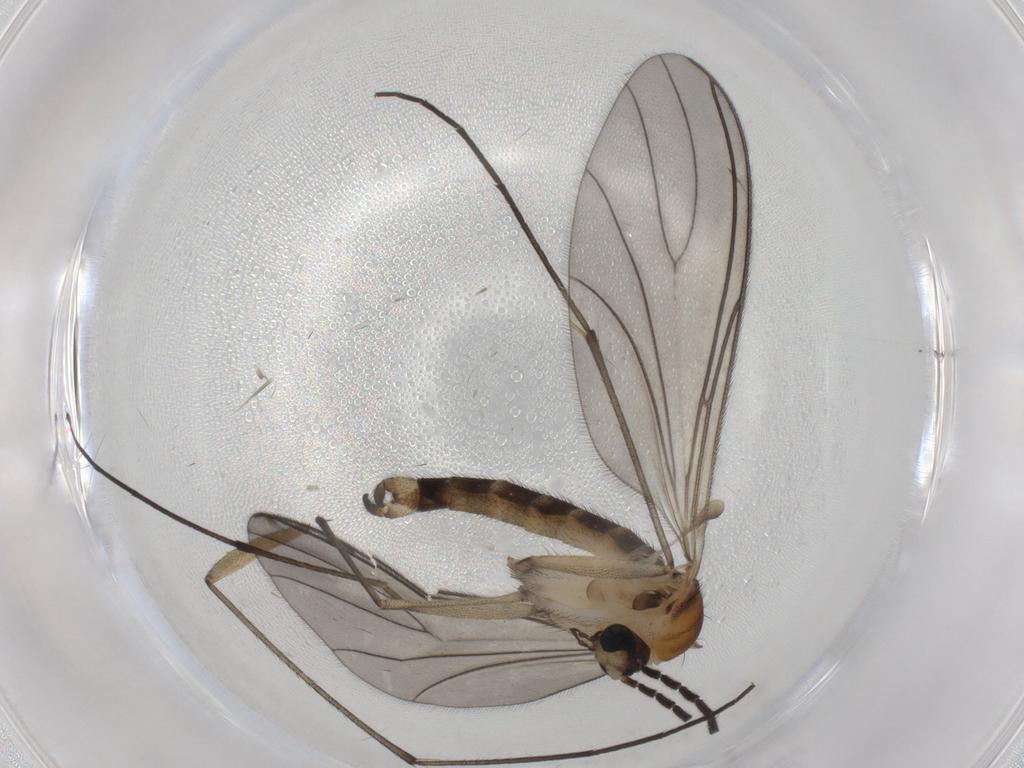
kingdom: Animalia
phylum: Arthropoda
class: Insecta
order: Diptera
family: Sciaridae
